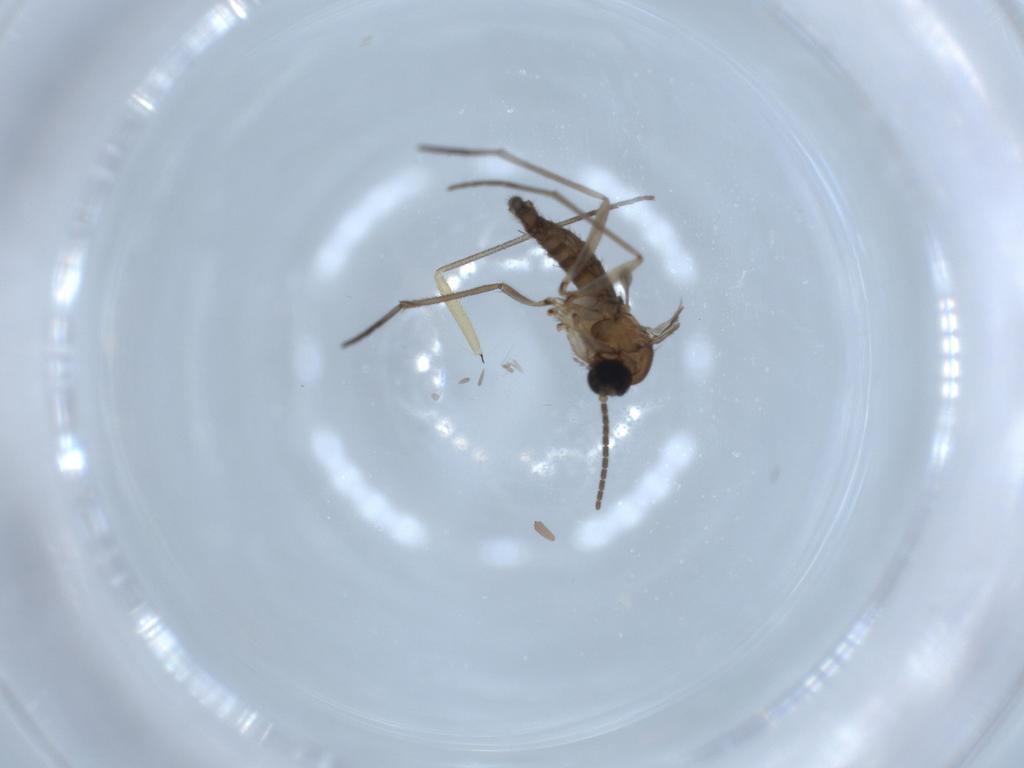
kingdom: Animalia
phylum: Arthropoda
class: Insecta
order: Diptera
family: Sciaridae
